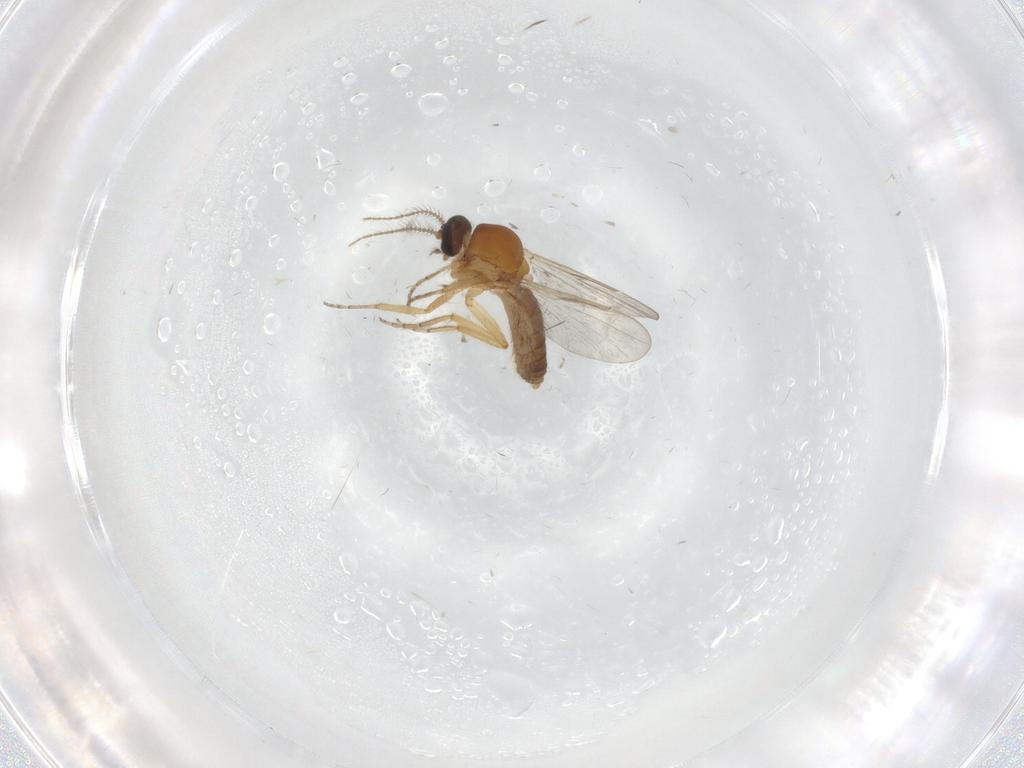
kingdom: Animalia
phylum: Arthropoda
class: Insecta
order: Diptera
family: Ceratopogonidae
